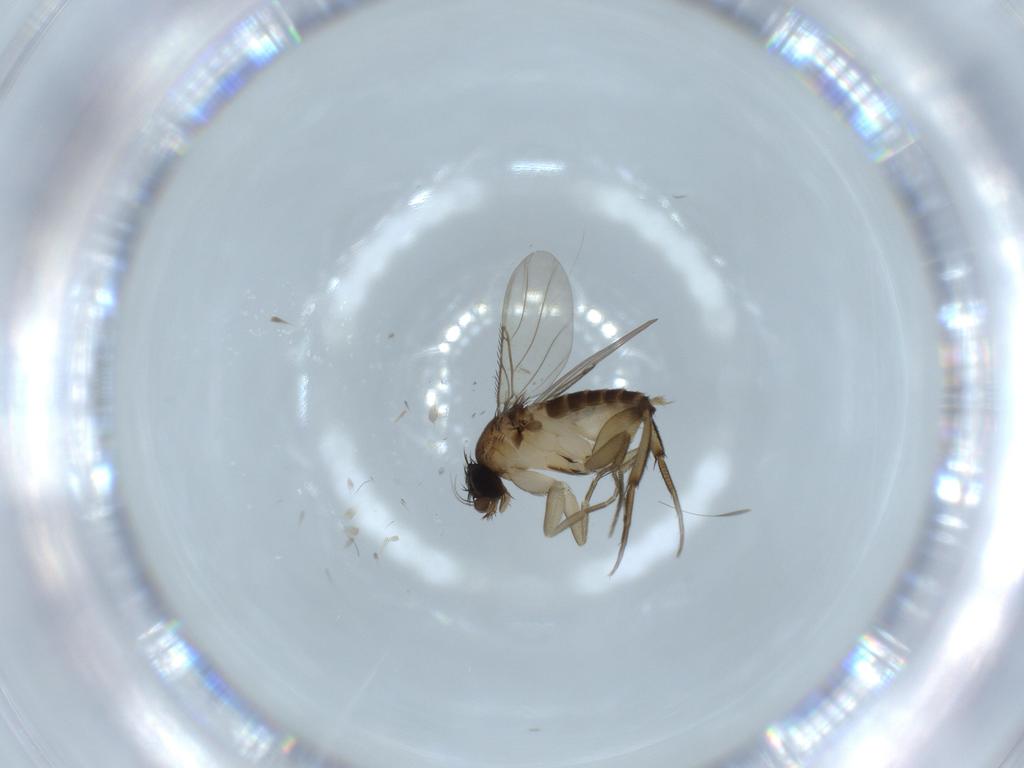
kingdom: Animalia
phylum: Arthropoda
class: Insecta
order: Diptera
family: Phoridae
